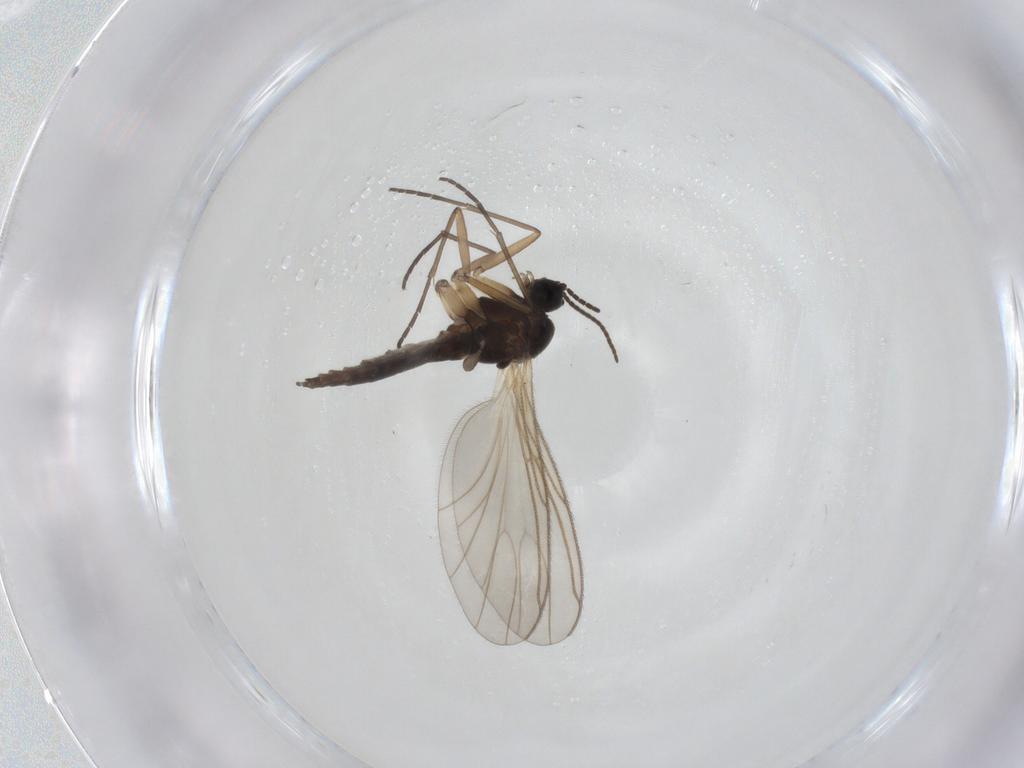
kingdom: Animalia
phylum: Arthropoda
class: Insecta
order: Diptera
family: Sciaridae
